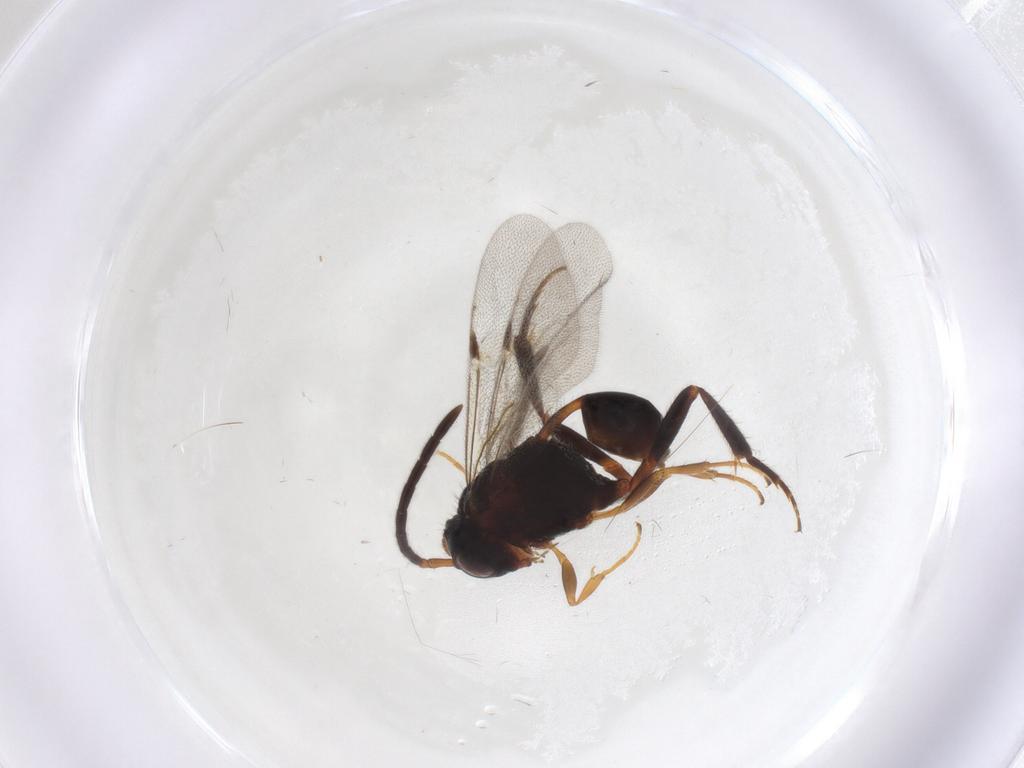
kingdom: Animalia
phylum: Arthropoda
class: Insecta
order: Hymenoptera
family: Evaniidae
